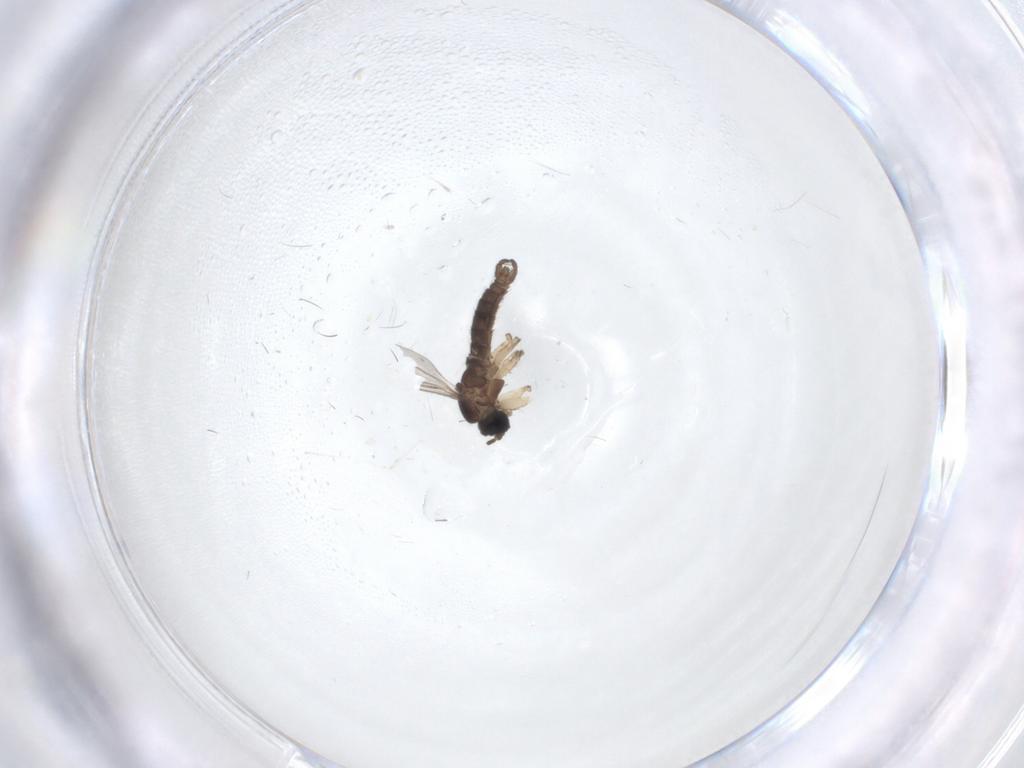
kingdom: Animalia
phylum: Arthropoda
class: Insecta
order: Diptera
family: Sciaridae
